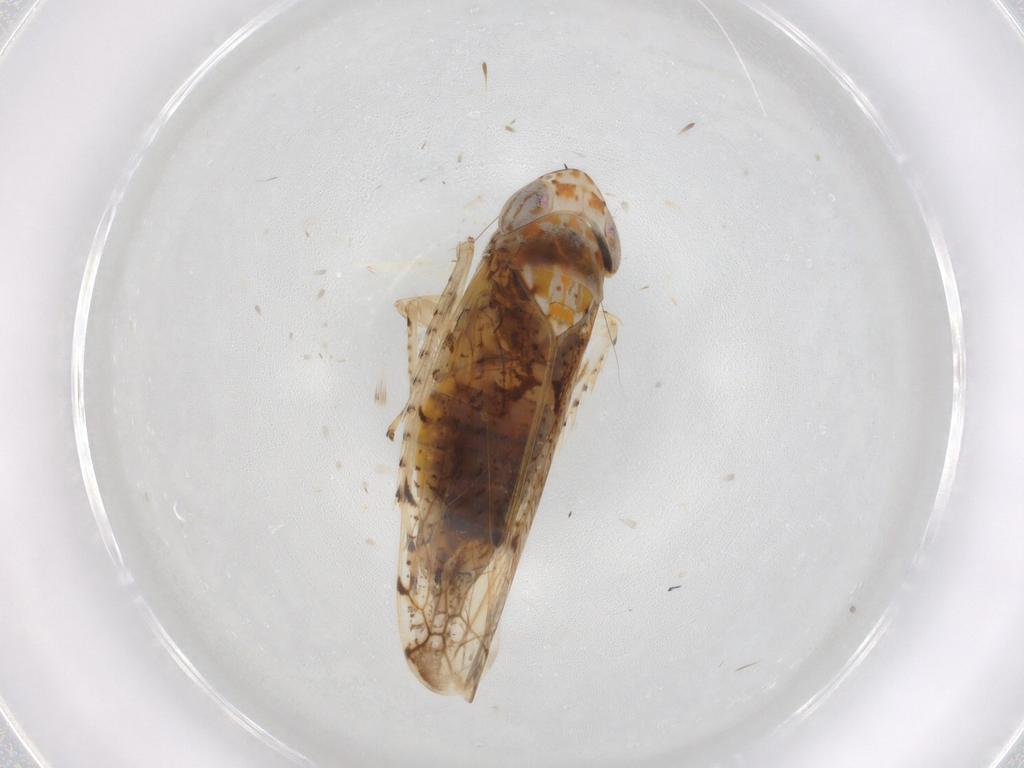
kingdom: Animalia
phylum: Arthropoda
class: Insecta
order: Hemiptera
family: Cicadellidae
